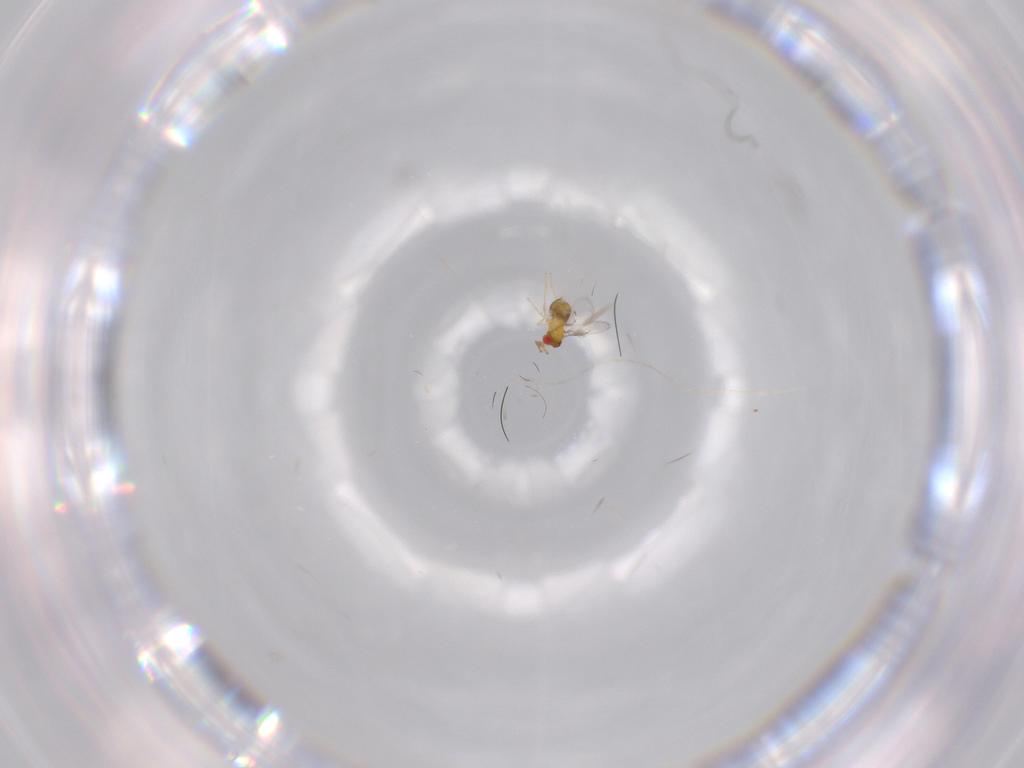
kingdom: Animalia
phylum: Arthropoda
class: Insecta
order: Hymenoptera
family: Trichogrammatidae
